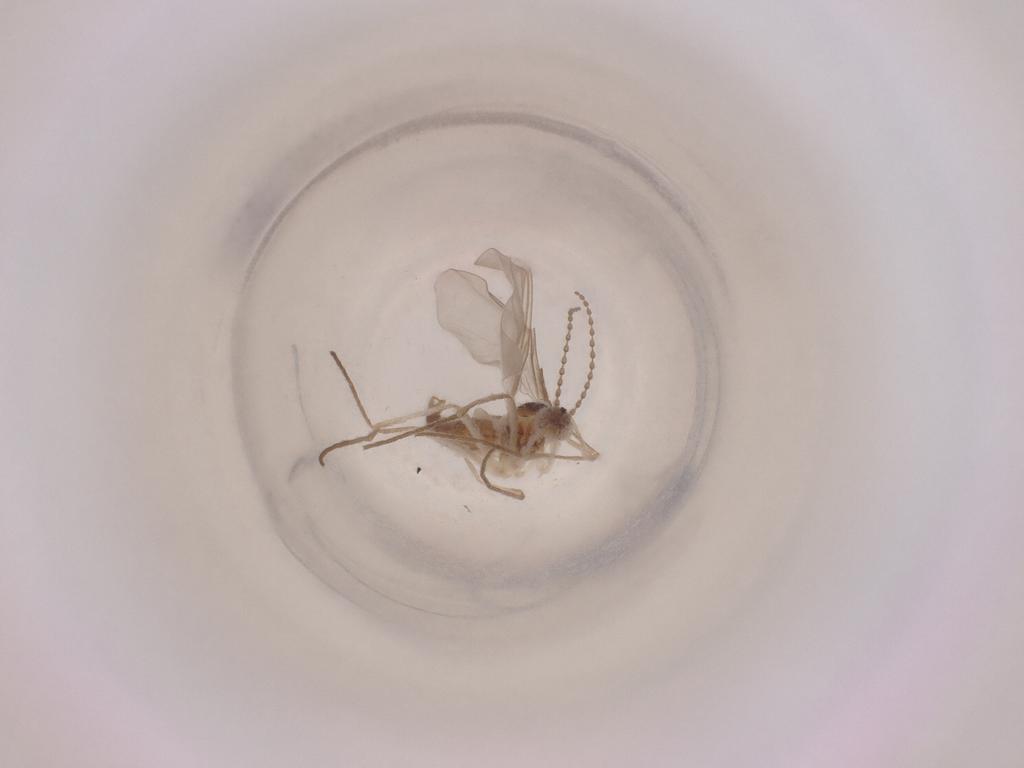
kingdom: Animalia
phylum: Arthropoda
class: Insecta
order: Diptera
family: Cecidomyiidae
